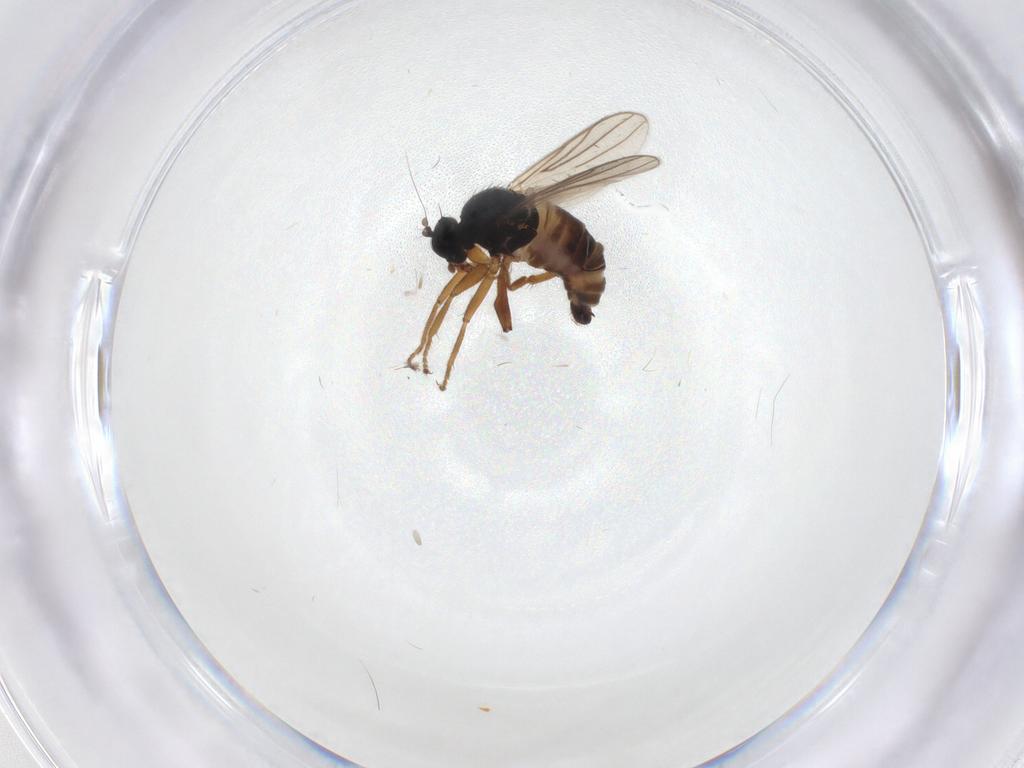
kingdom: Animalia
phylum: Arthropoda
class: Insecta
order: Diptera
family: Hybotidae
